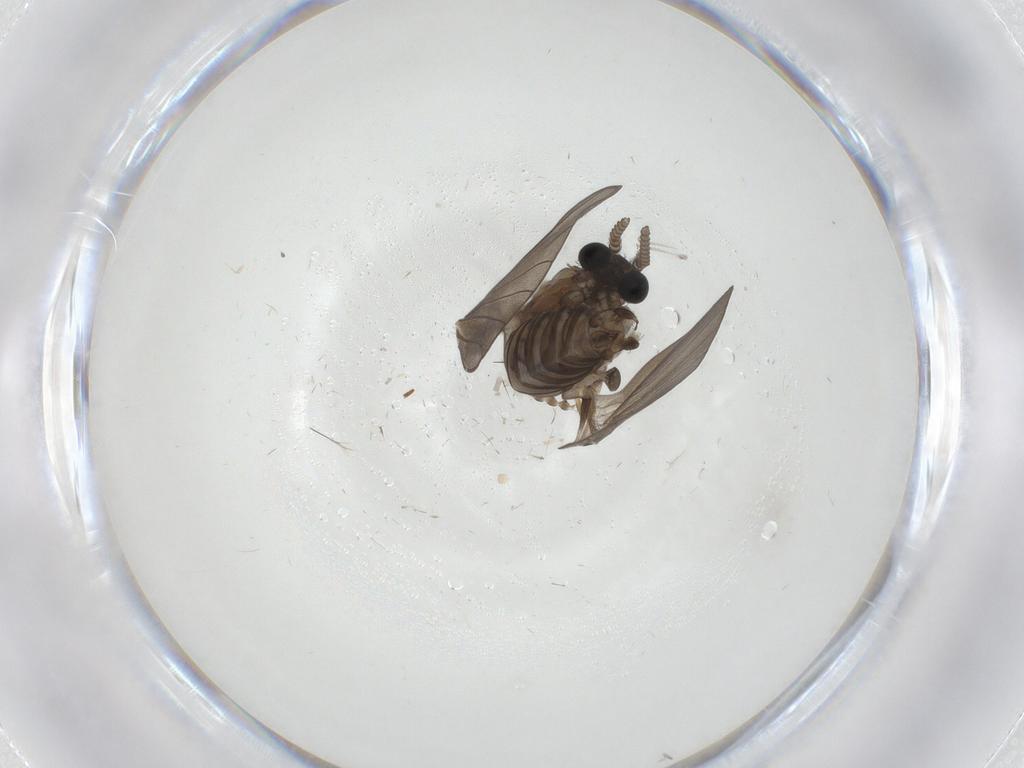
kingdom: Animalia
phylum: Arthropoda
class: Insecta
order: Diptera
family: Psychodidae
